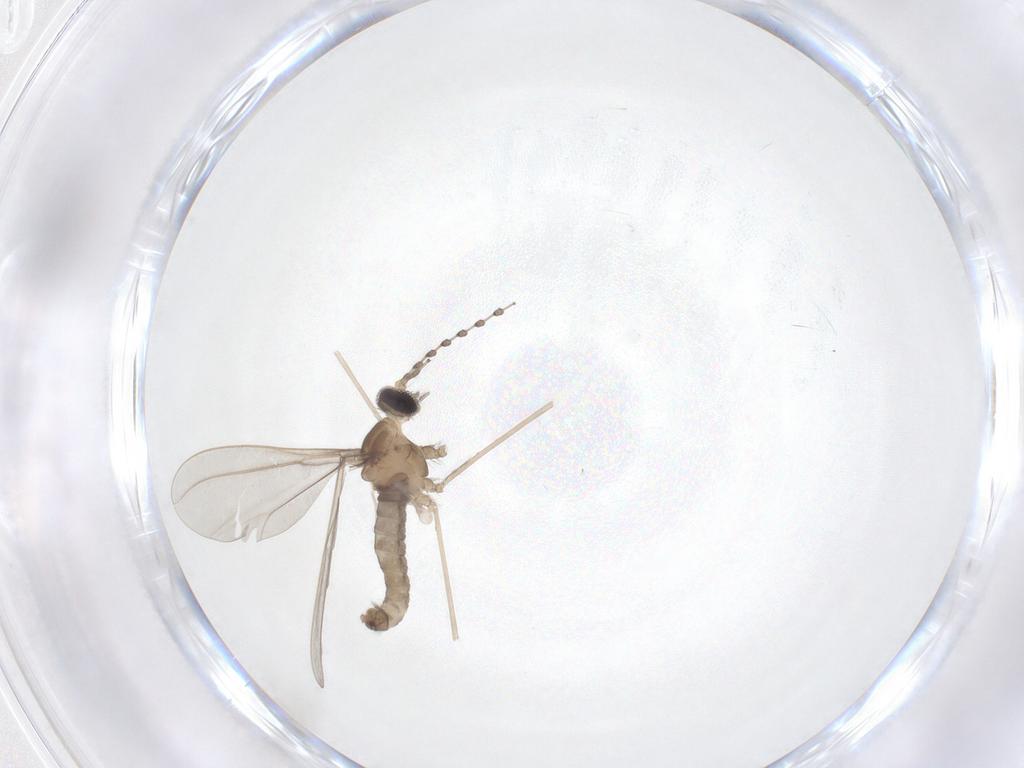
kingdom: Animalia
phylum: Arthropoda
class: Insecta
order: Diptera
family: Cecidomyiidae
